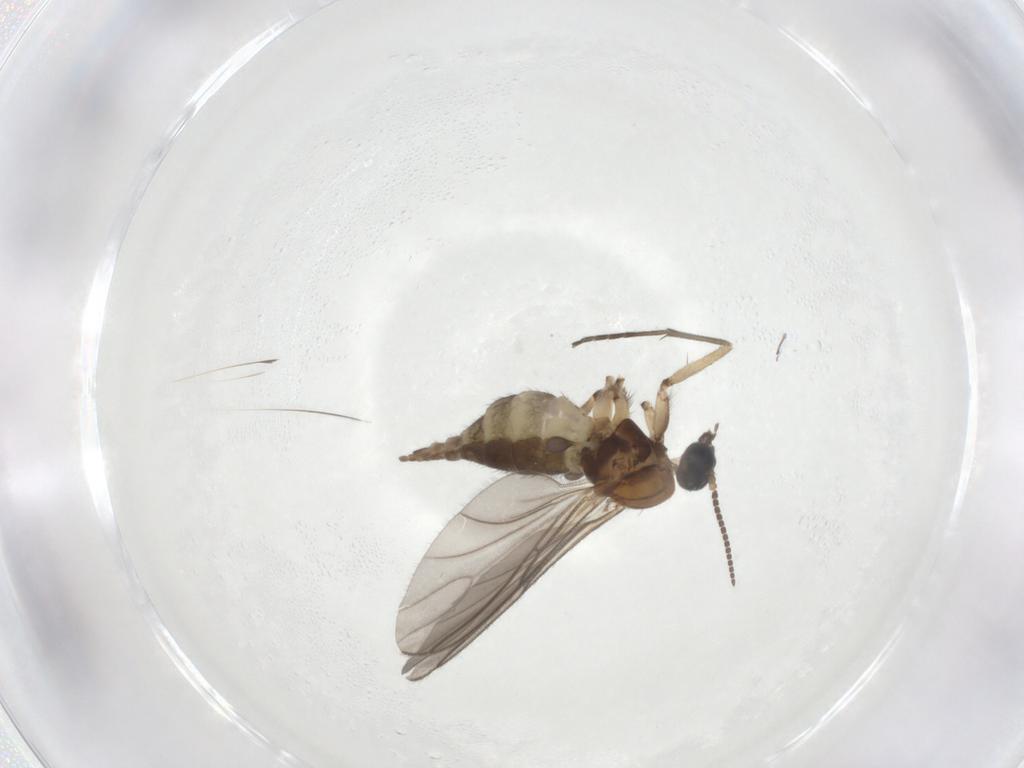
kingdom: Animalia
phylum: Arthropoda
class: Insecta
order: Diptera
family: Sciaridae
